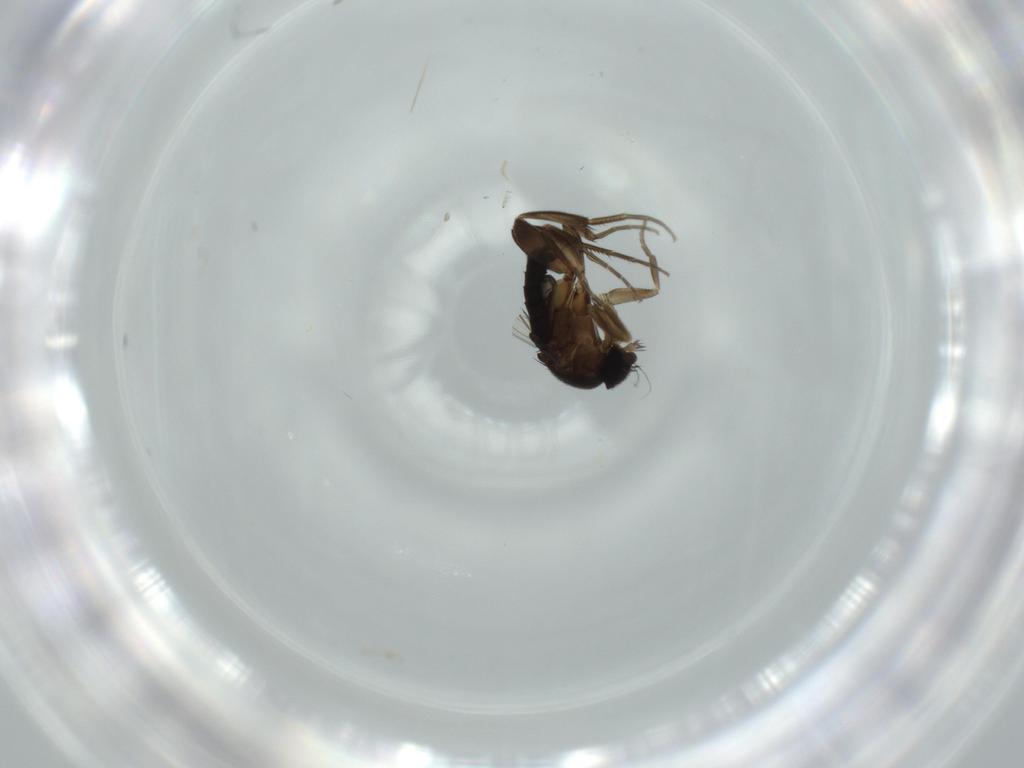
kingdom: Animalia
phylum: Arthropoda
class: Insecta
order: Diptera
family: Phoridae
